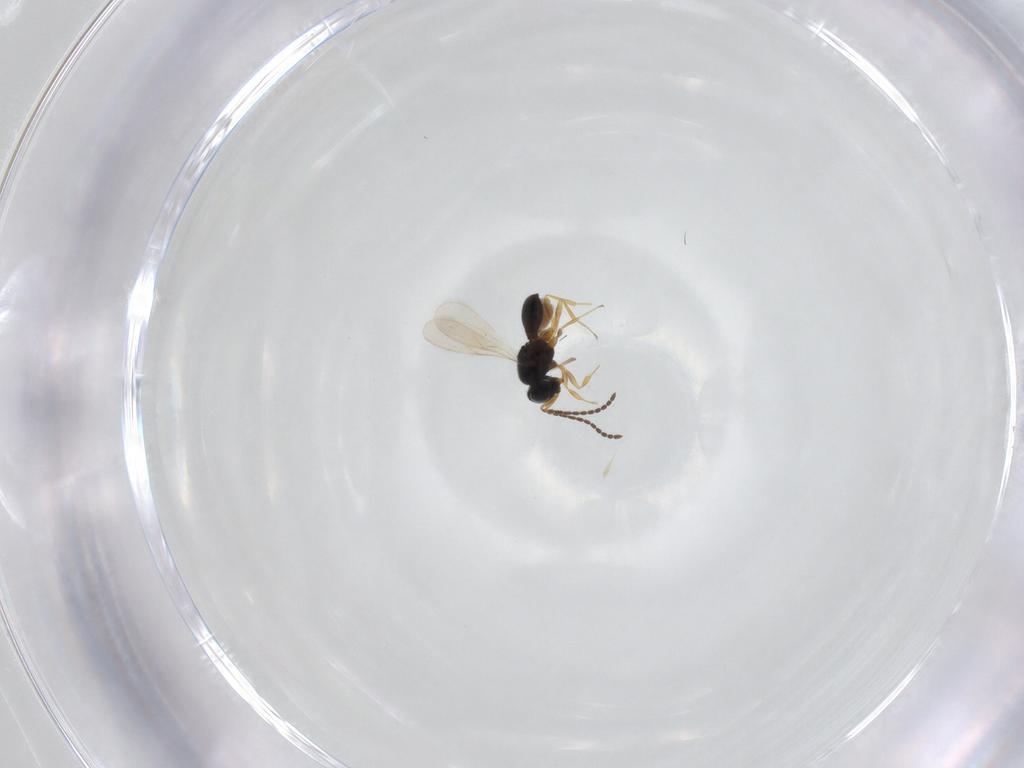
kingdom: Animalia
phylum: Arthropoda
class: Insecta
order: Hymenoptera
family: Scelionidae
